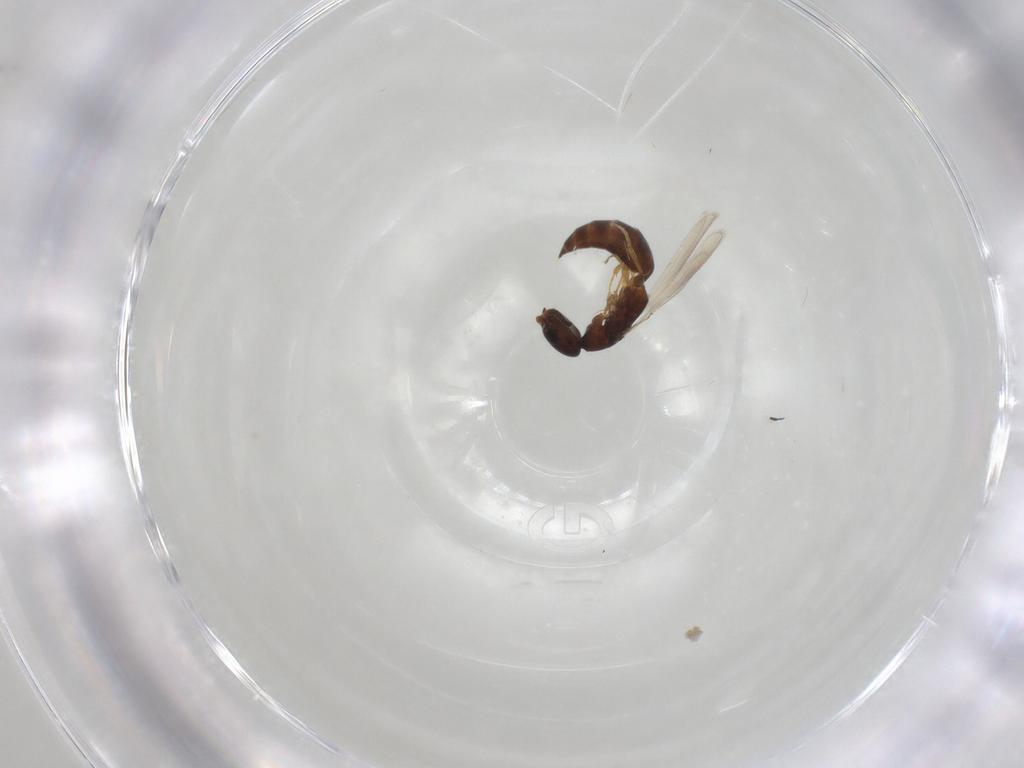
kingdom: Animalia
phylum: Arthropoda
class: Insecta
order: Hymenoptera
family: Bethylidae
